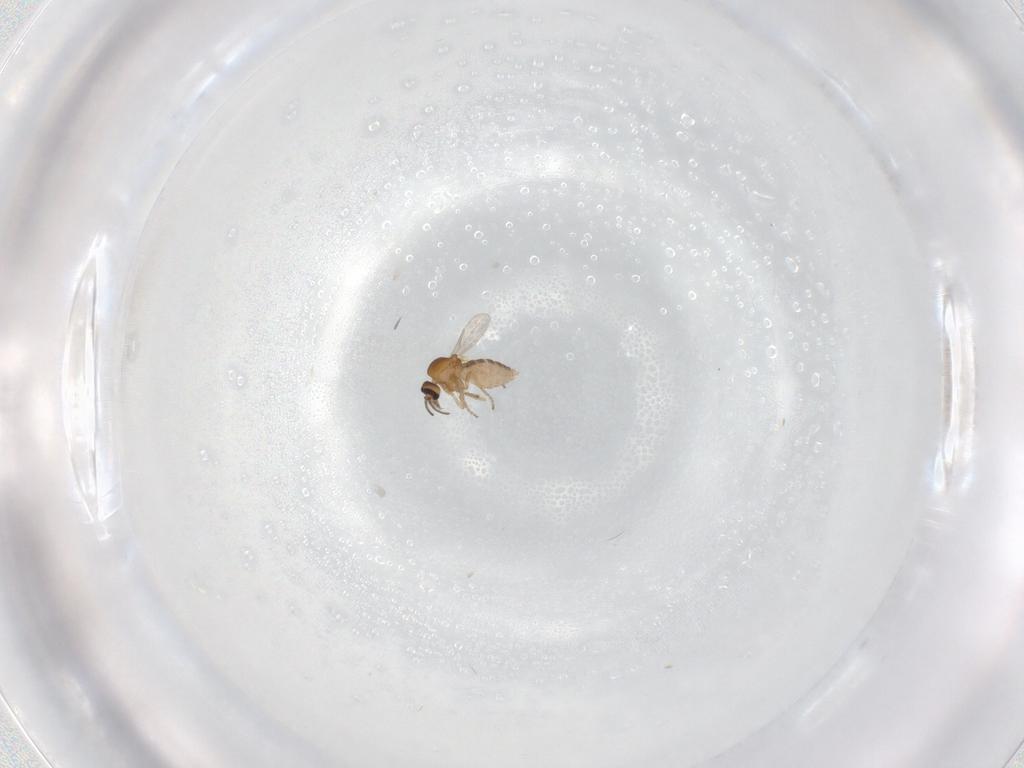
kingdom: Animalia
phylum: Arthropoda
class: Insecta
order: Diptera
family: Ceratopogonidae
